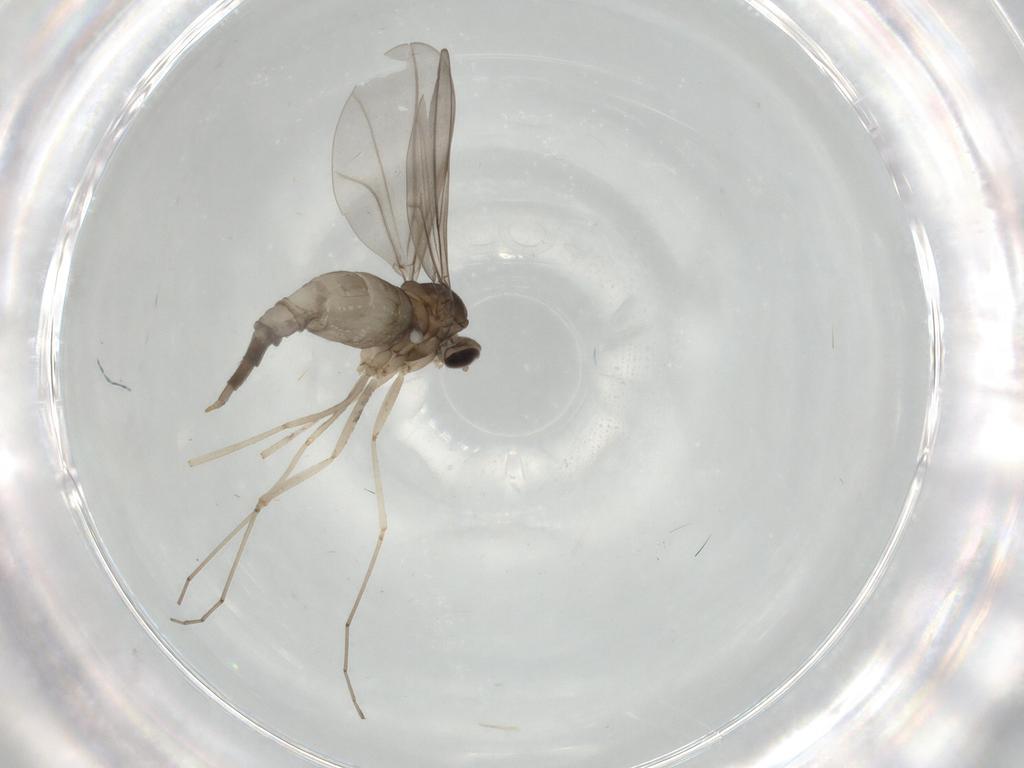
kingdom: Animalia
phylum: Arthropoda
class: Insecta
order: Diptera
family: Cecidomyiidae
